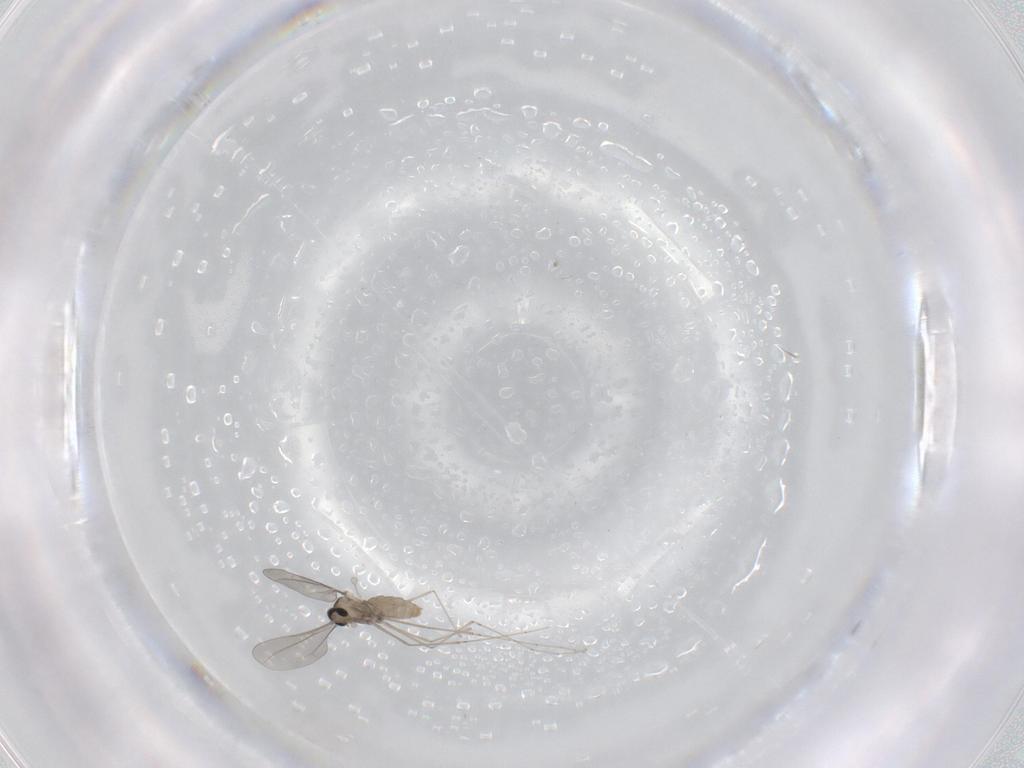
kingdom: Animalia
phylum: Arthropoda
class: Insecta
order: Diptera
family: Cecidomyiidae
